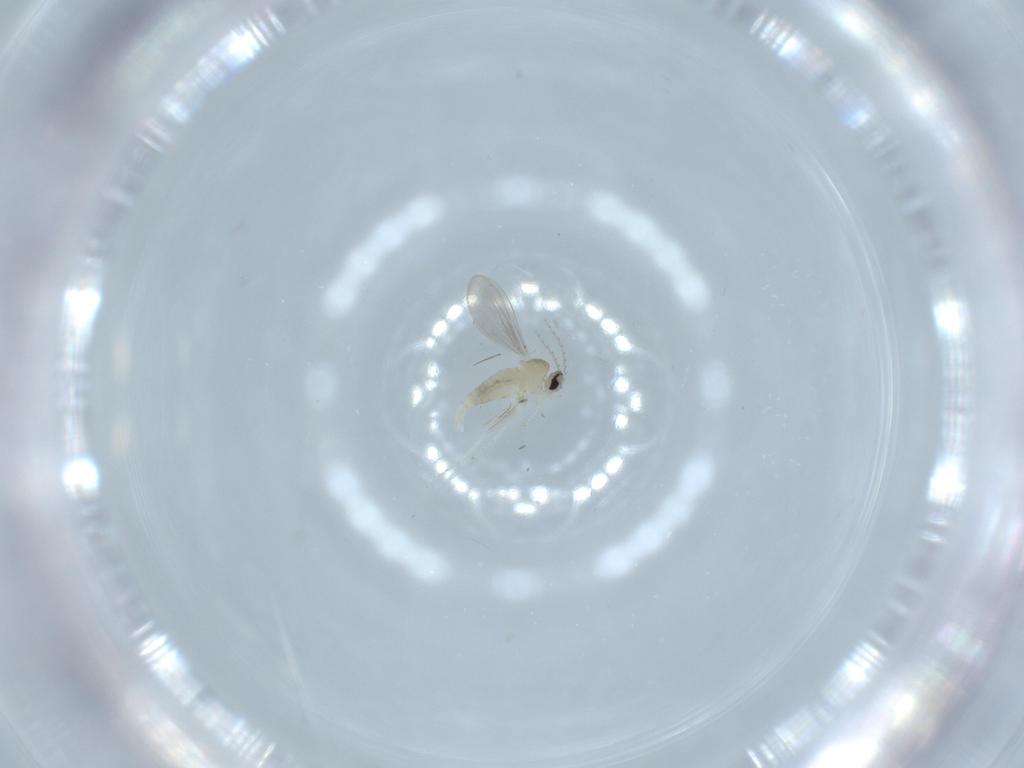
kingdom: Animalia
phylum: Arthropoda
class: Insecta
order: Diptera
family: Cecidomyiidae
